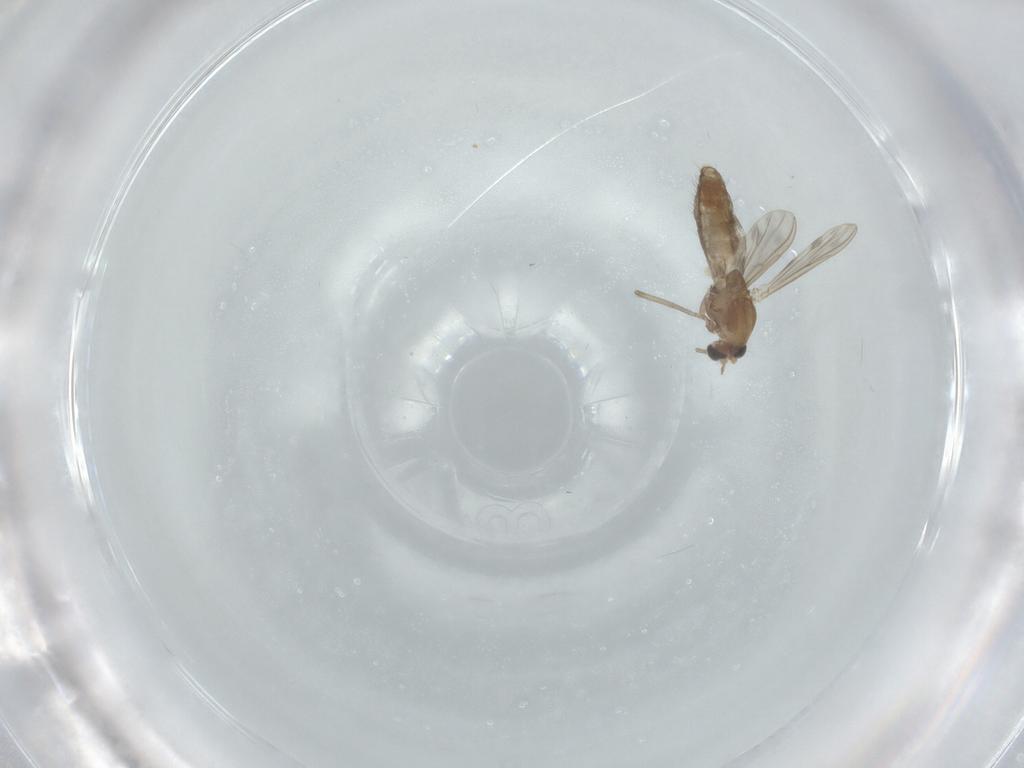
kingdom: Animalia
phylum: Arthropoda
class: Insecta
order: Diptera
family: Chironomidae
